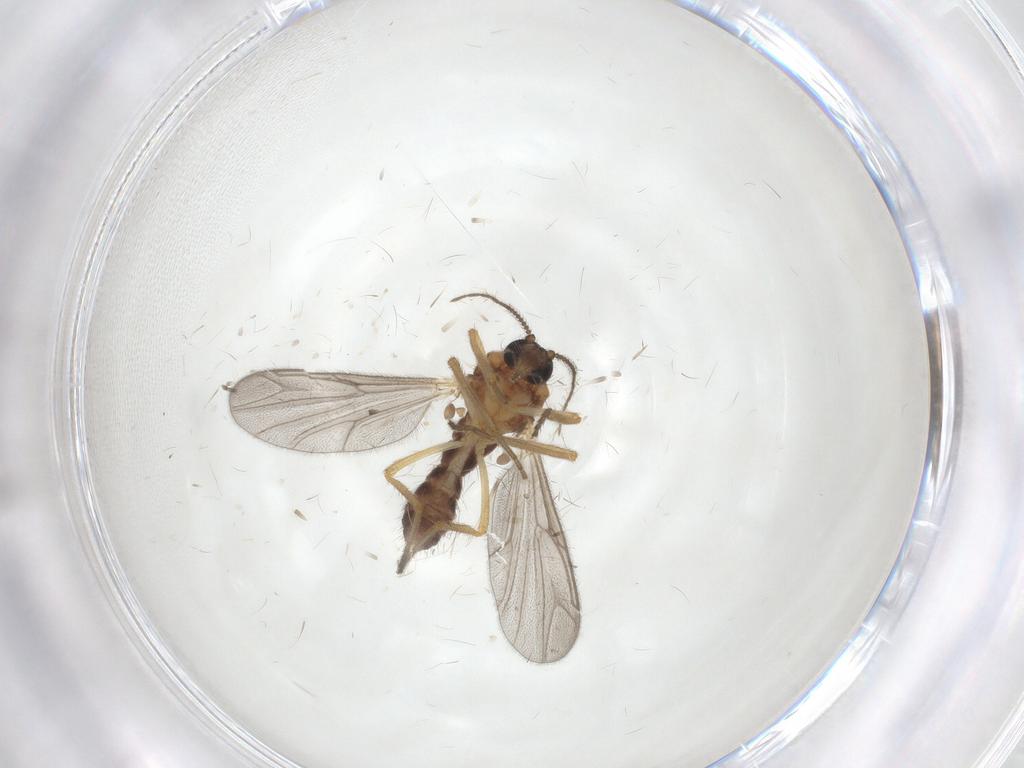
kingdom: Animalia
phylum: Arthropoda
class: Insecta
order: Diptera
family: Ceratopogonidae
